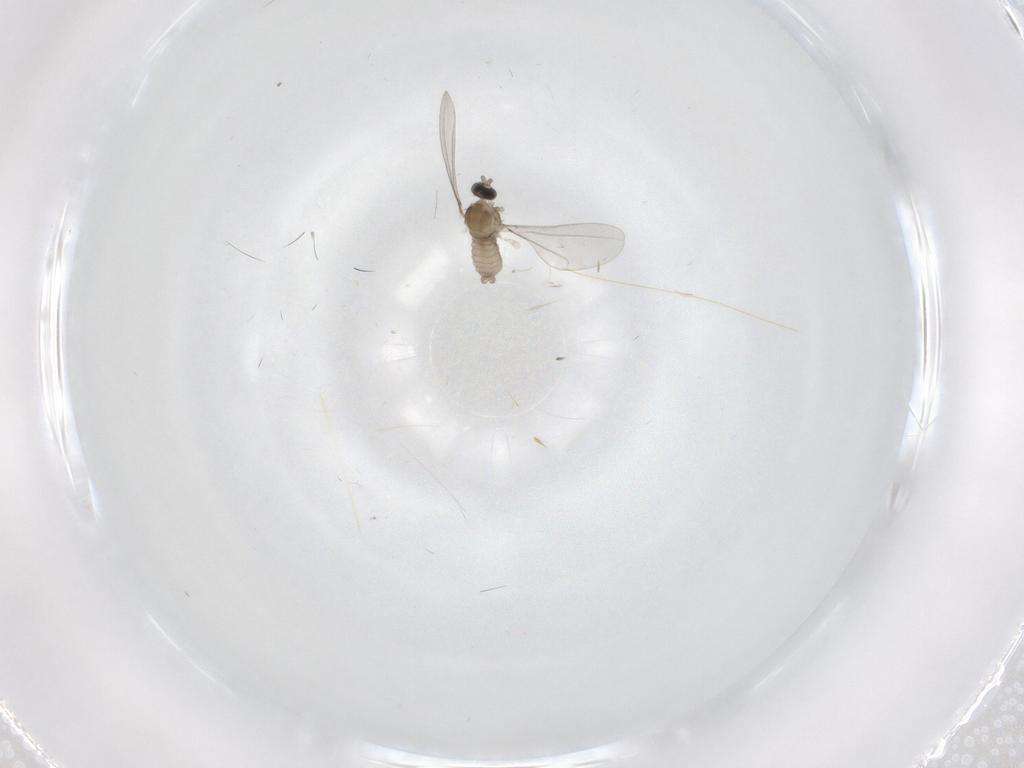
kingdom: Animalia
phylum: Arthropoda
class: Insecta
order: Diptera
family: Cecidomyiidae
